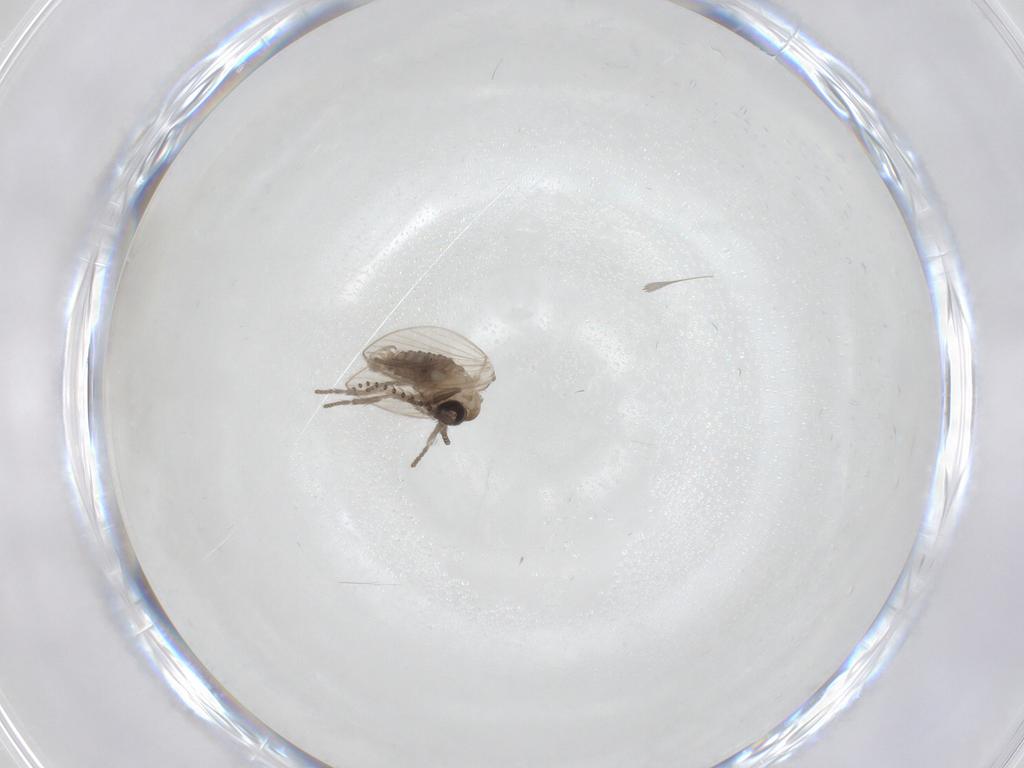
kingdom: Animalia
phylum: Arthropoda
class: Insecta
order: Diptera
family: Psychodidae
